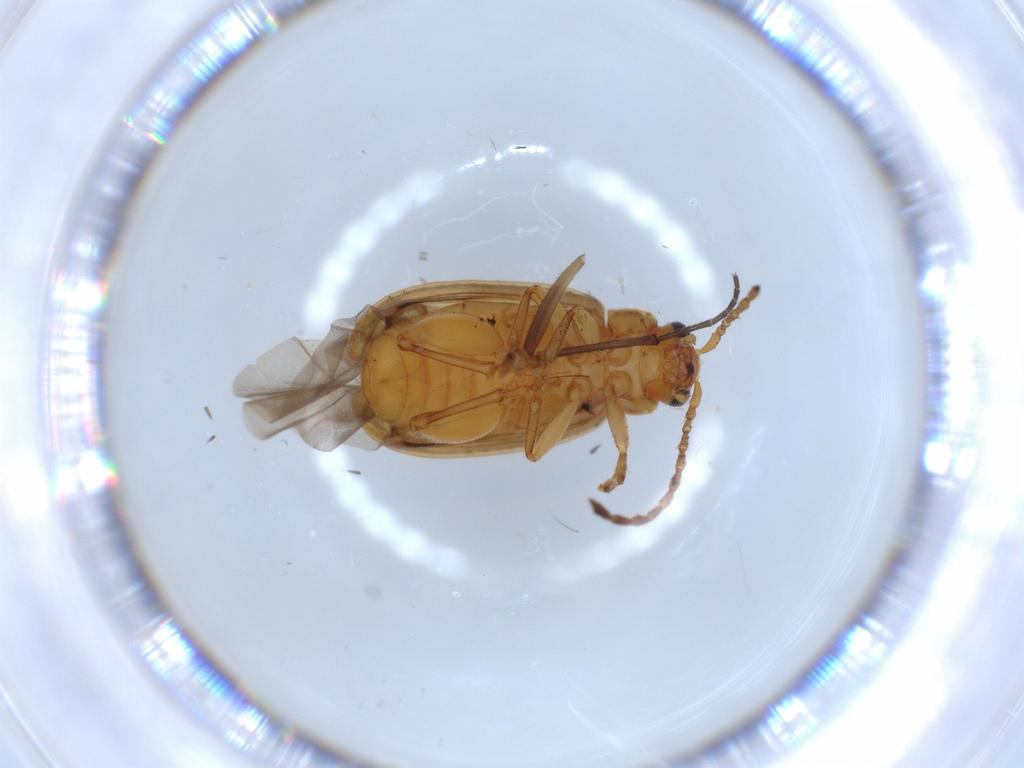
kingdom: Animalia
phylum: Arthropoda
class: Insecta
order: Coleoptera
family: Chrysomelidae
